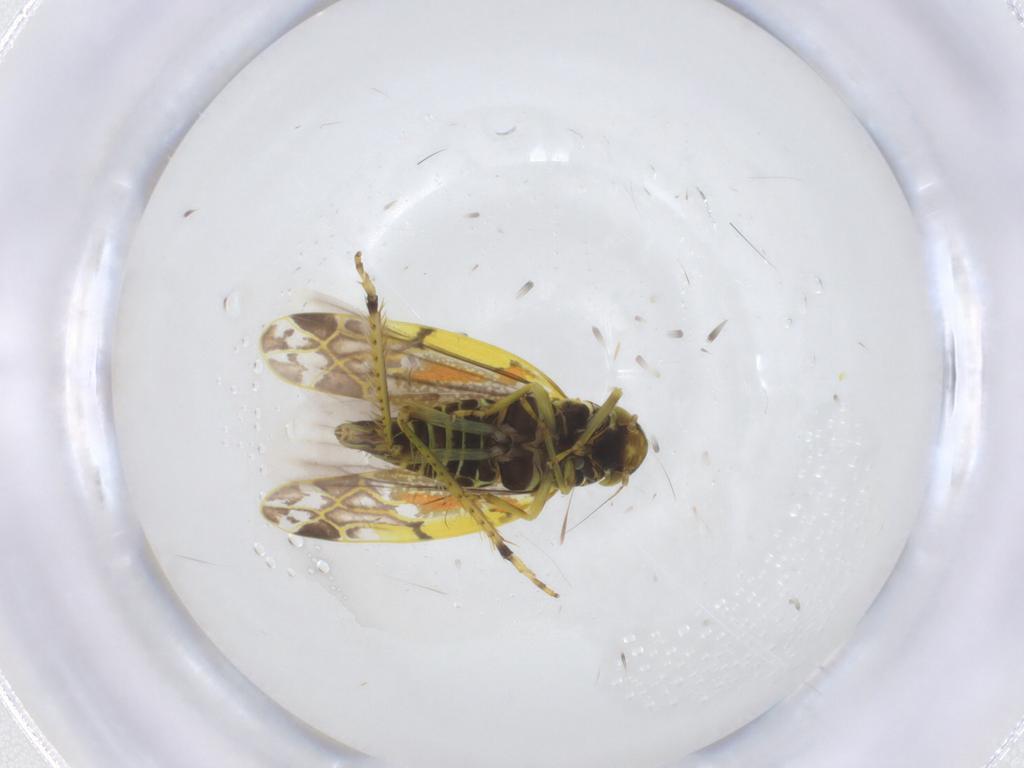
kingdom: Animalia
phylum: Arthropoda
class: Insecta
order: Hemiptera
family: Cicadellidae
